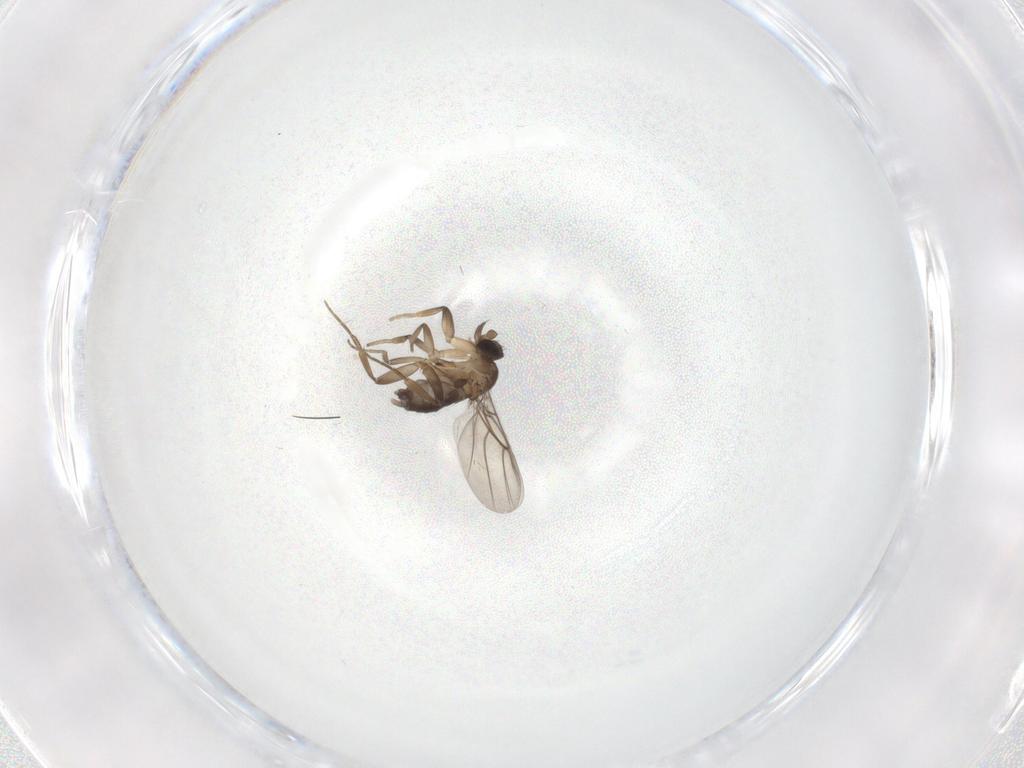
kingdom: Animalia
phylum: Arthropoda
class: Insecta
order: Diptera
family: Phoridae
